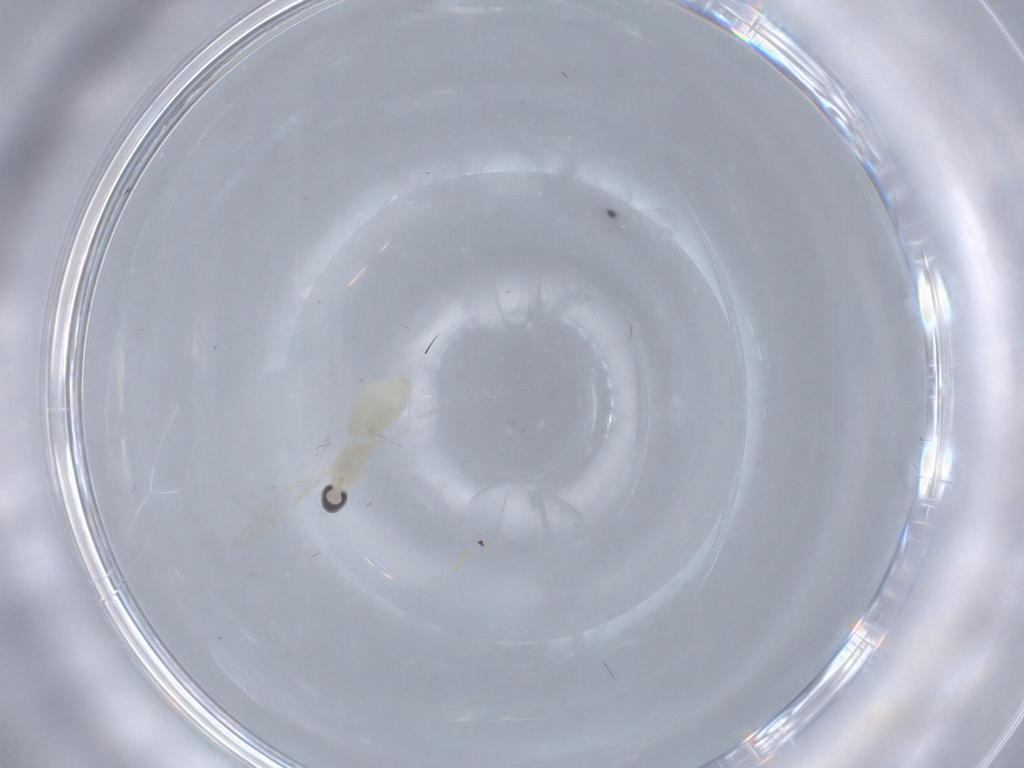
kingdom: Animalia
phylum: Arthropoda
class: Insecta
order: Diptera
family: Cecidomyiidae
